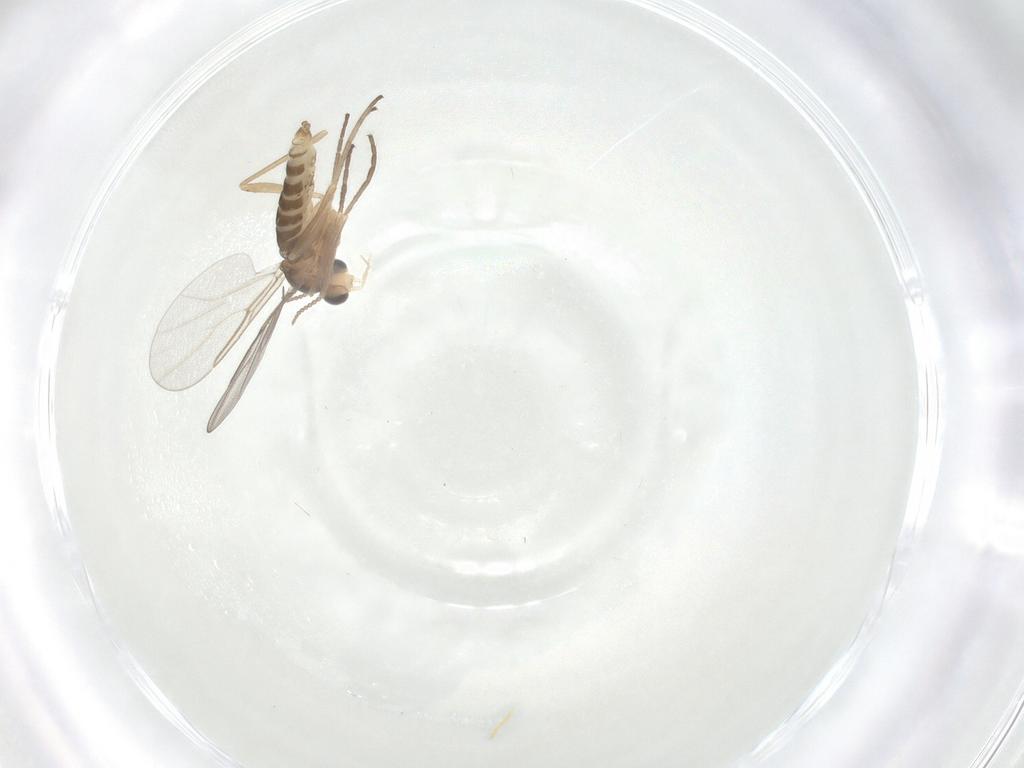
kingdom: Animalia
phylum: Arthropoda
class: Insecta
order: Diptera
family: Cecidomyiidae
